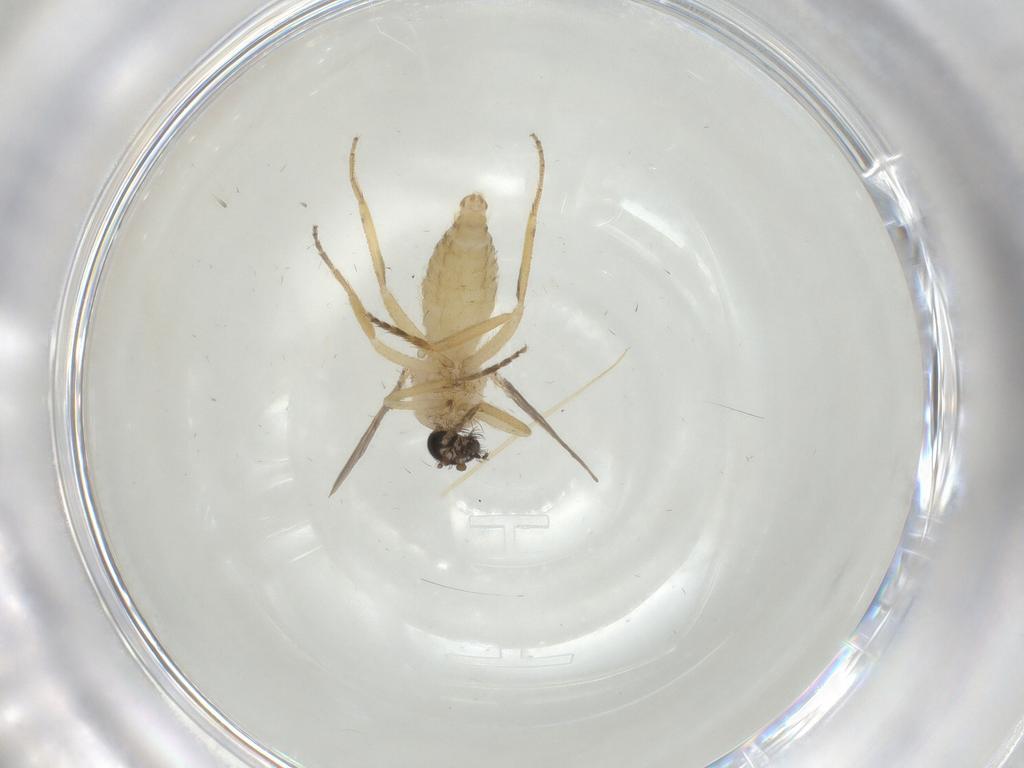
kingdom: Animalia
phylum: Arthropoda
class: Insecta
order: Diptera
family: Ceratopogonidae
